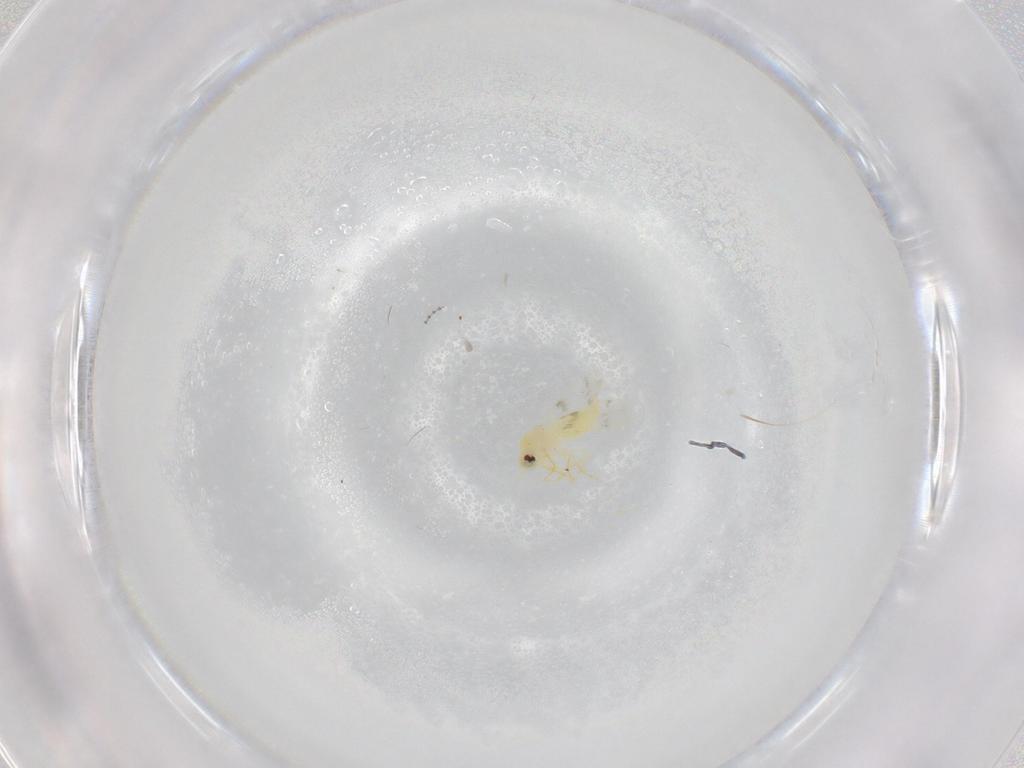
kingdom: Animalia
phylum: Arthropoda
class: Insecta
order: Hemiptera
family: Aleyrodidae
